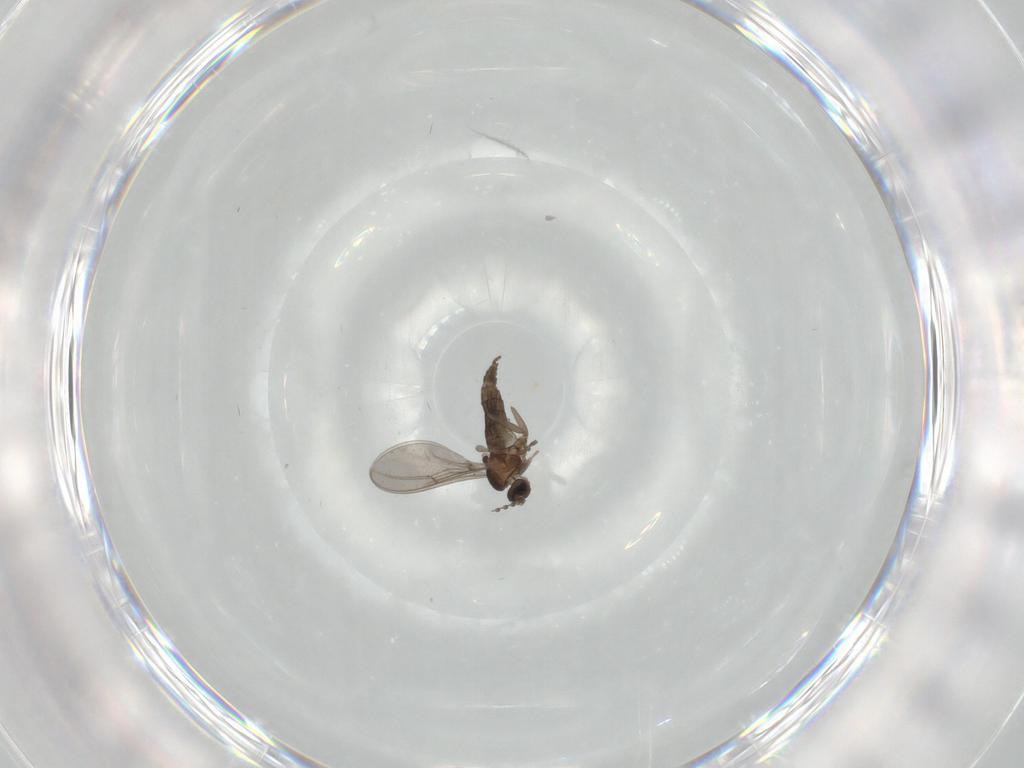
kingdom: Animalia
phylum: Arthropoda
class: Insecta
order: Diptera
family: Cecidomyiidae
